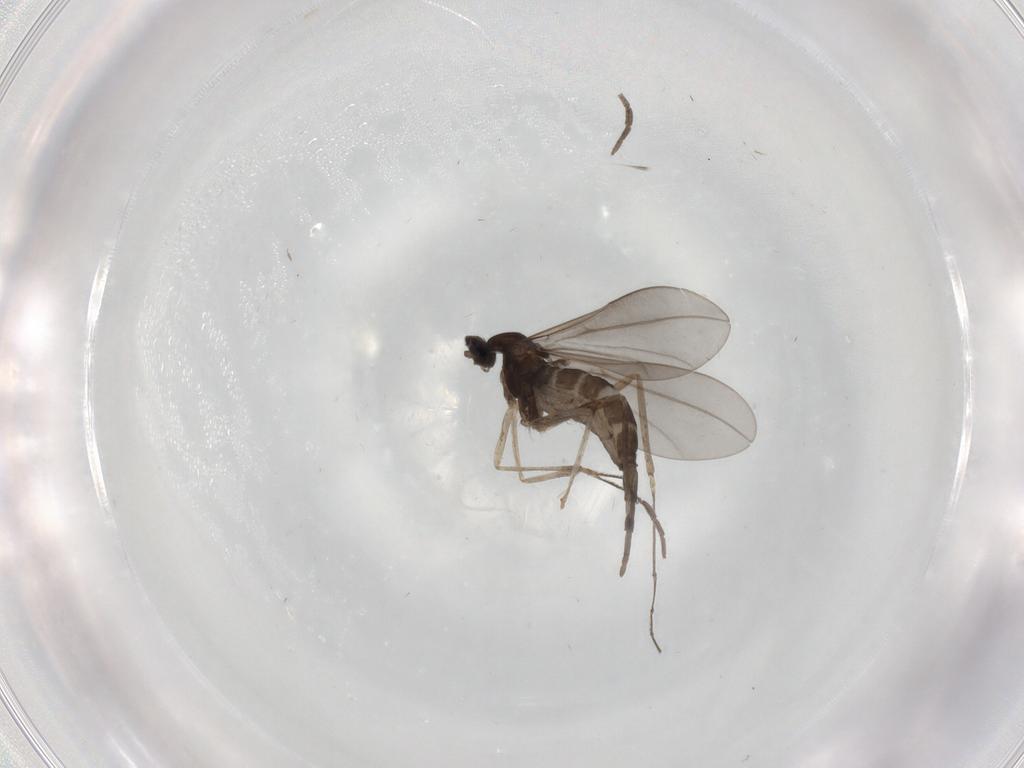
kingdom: Animalia
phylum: Arthropoda
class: Insecta
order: Diptera
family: Cecidomyiidae
